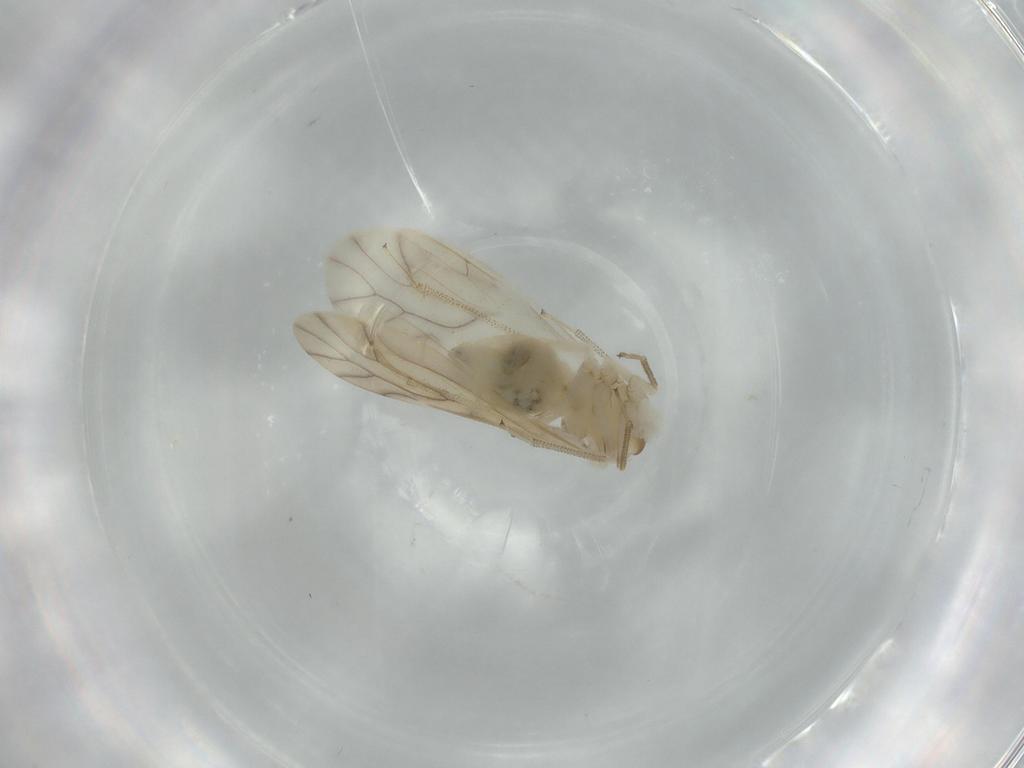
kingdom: Animalia
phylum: Arthropoda
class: Insecta
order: Psocodea
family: Caeciliusidae
